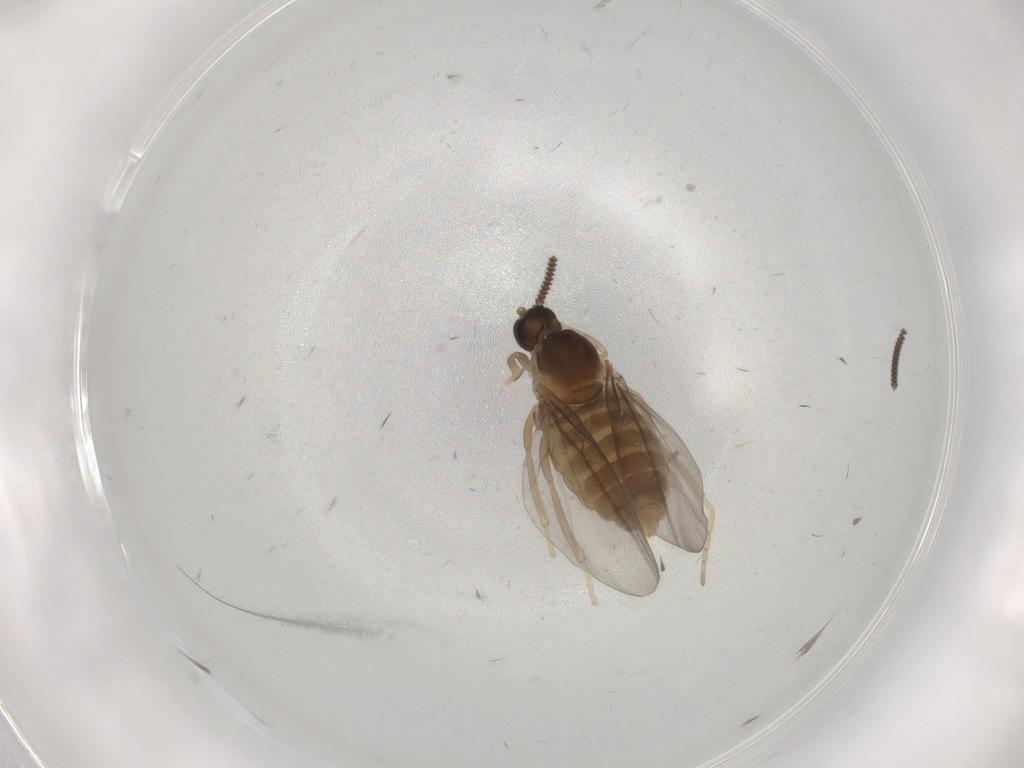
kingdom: Animalia
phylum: Arthropoda
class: Insecta
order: Diptera
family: Cecidomyiidae
